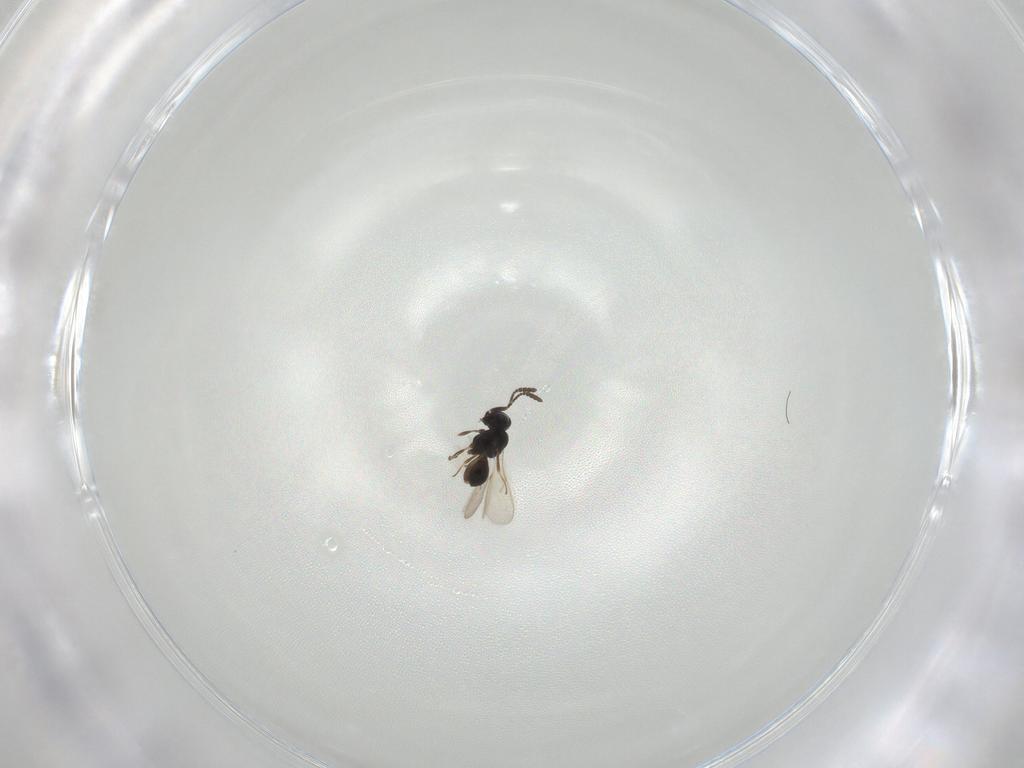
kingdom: Animalia
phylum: Arthropoda
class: Insecta
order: Hymenoptera
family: Scelionidae
